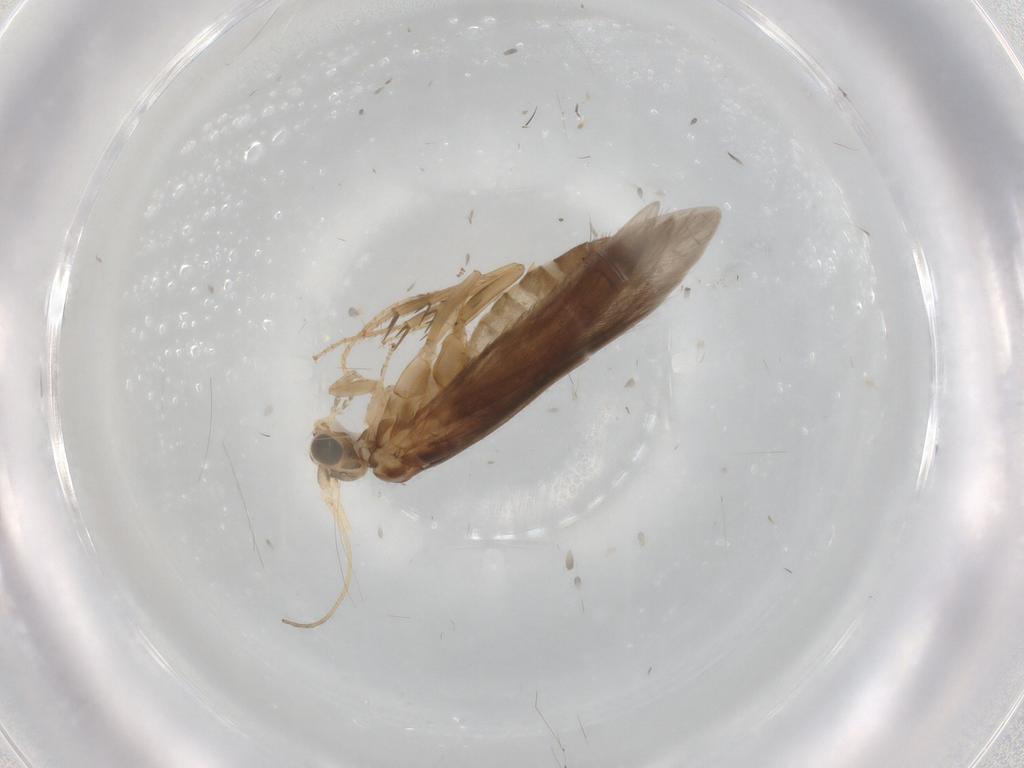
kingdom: Animalia
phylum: Arthropoda
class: Insecta
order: Trichoptera
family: Glossosomatidae
